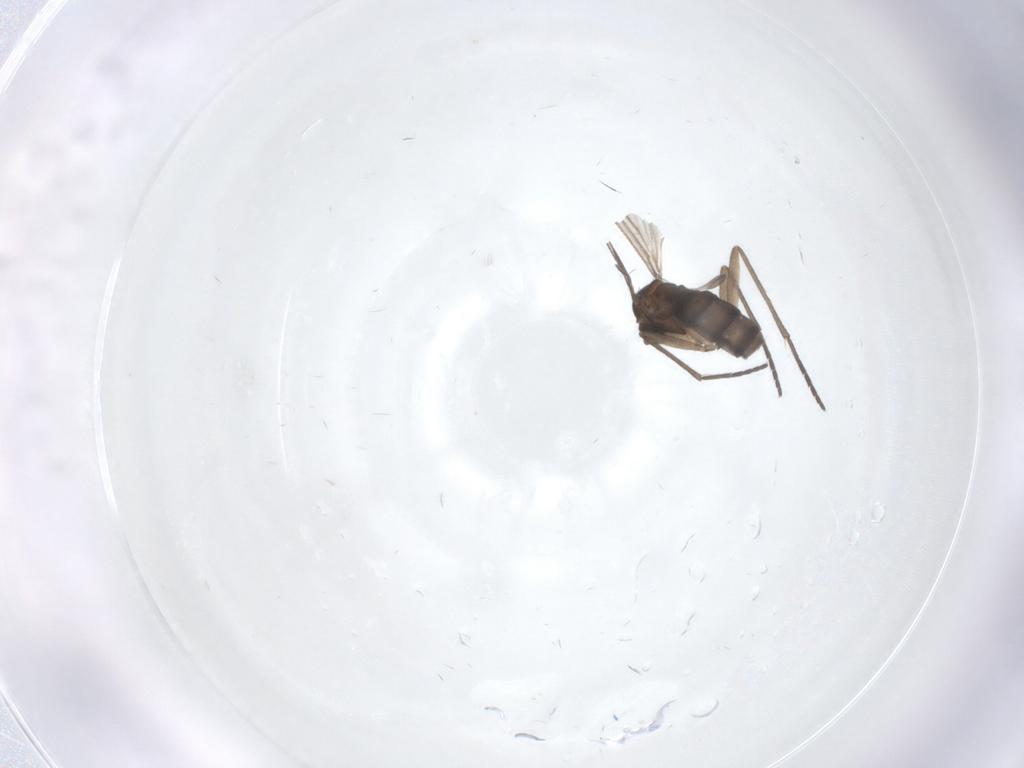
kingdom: Animalia
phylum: Arthropoda
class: Insecta
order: Diptera
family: Sciaridae
